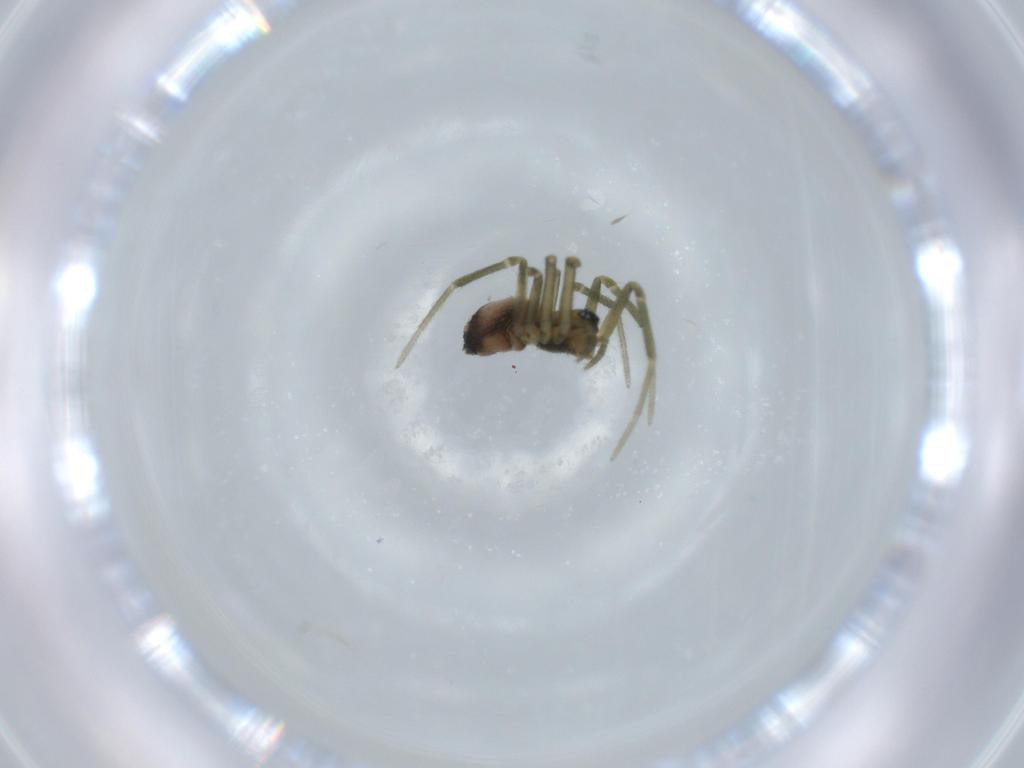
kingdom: Animalia
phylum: Arthropoda
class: Arachnida
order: Araneae
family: Linyphiidae
